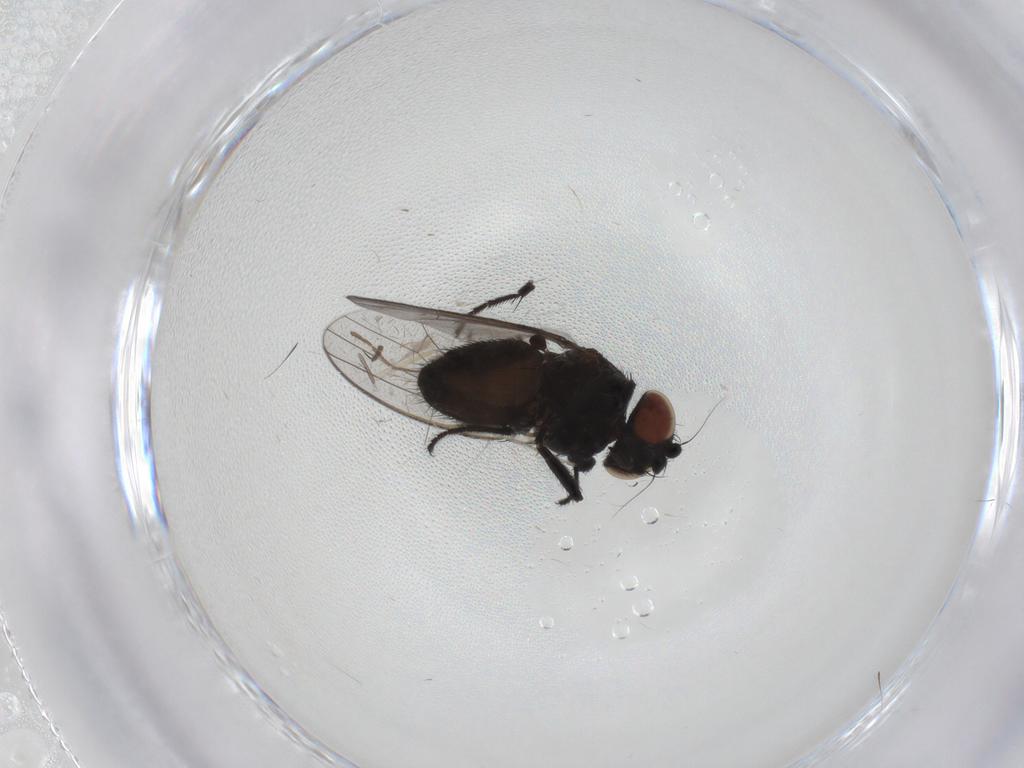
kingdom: Animalia
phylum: Arthropoda
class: Insecta
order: Diptera
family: Milichiidae
